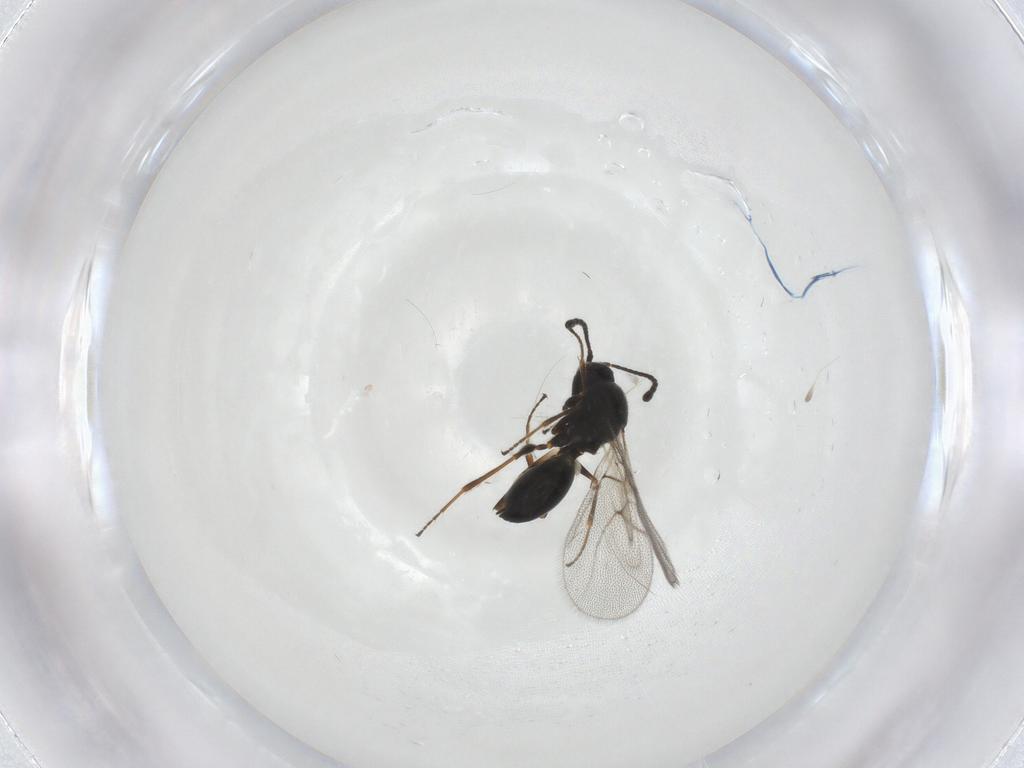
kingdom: Animalia
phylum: Arthropoda
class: Insecta
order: Hymenoptera
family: Figitidae
